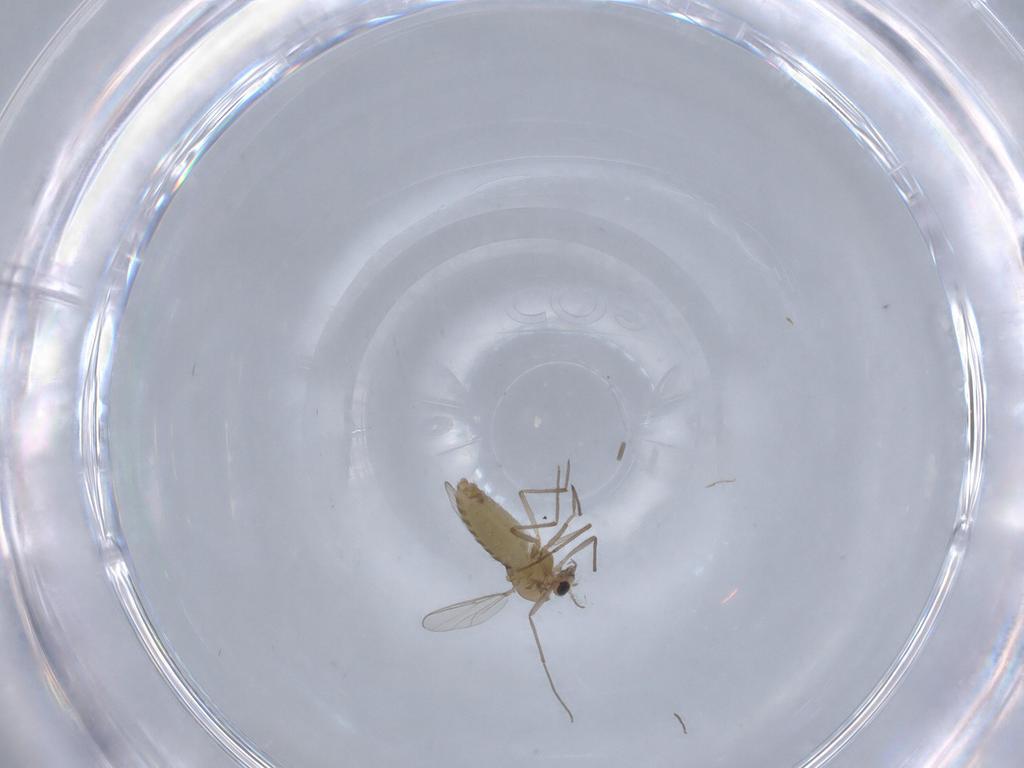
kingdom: Animalia
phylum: Arthropoda
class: Insecta
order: Diptera
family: Chironomidae
